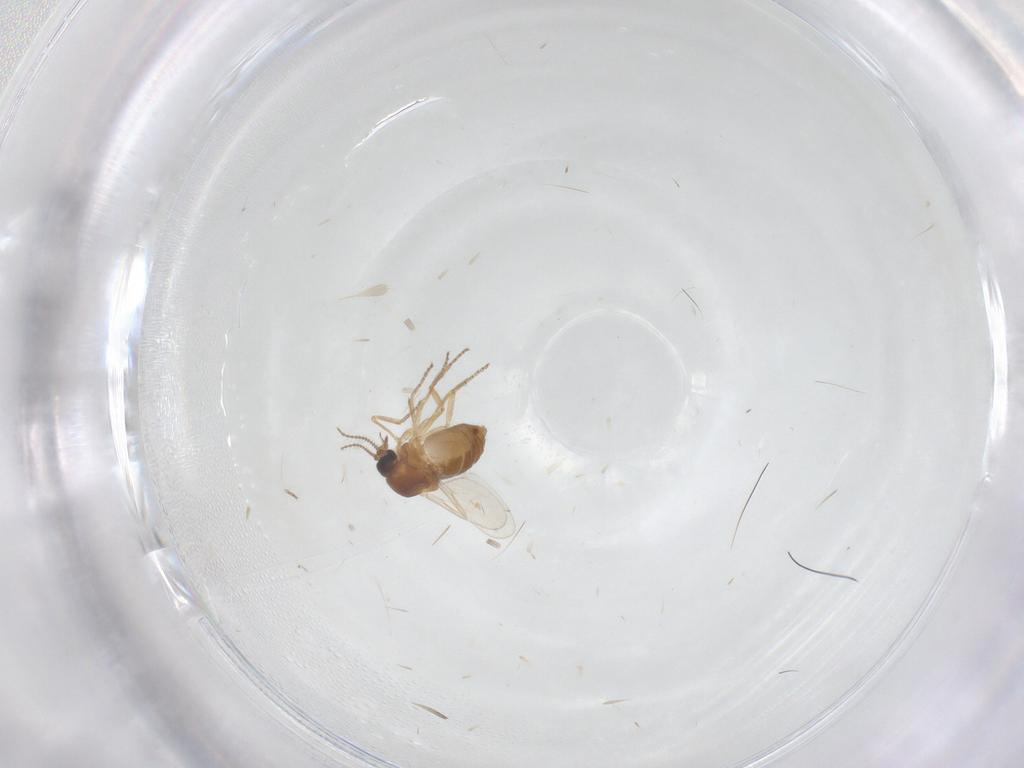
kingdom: Animalia
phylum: Arthropoda
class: Insecta
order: Diptera
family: Ceratopogonidae
